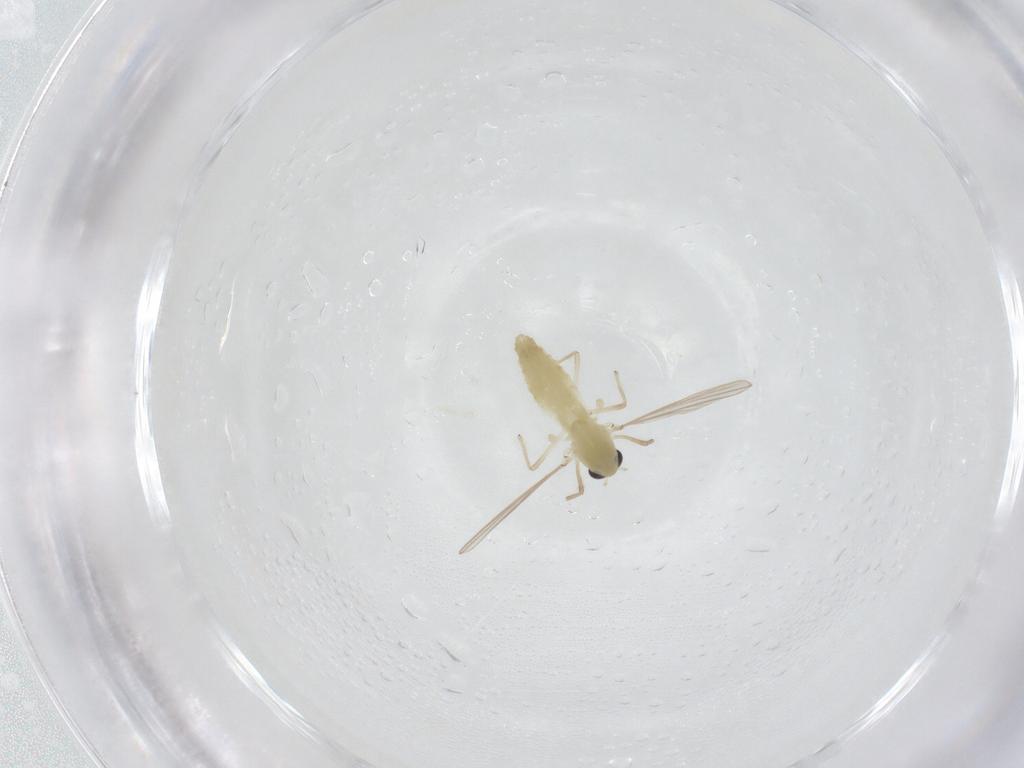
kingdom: Animalia
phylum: Arthropoda
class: Insecta
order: Diptera
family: Chironomidae
